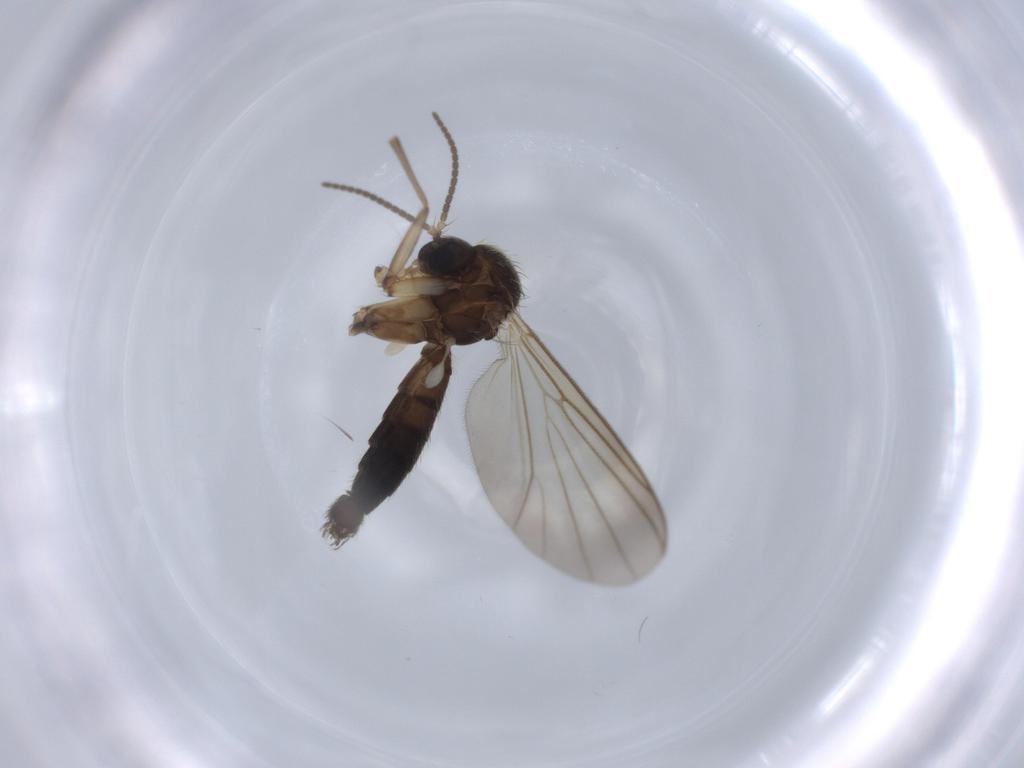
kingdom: Animalia
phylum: Arthropoda
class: Insecta
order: Diptera
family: Mycetophilidae
